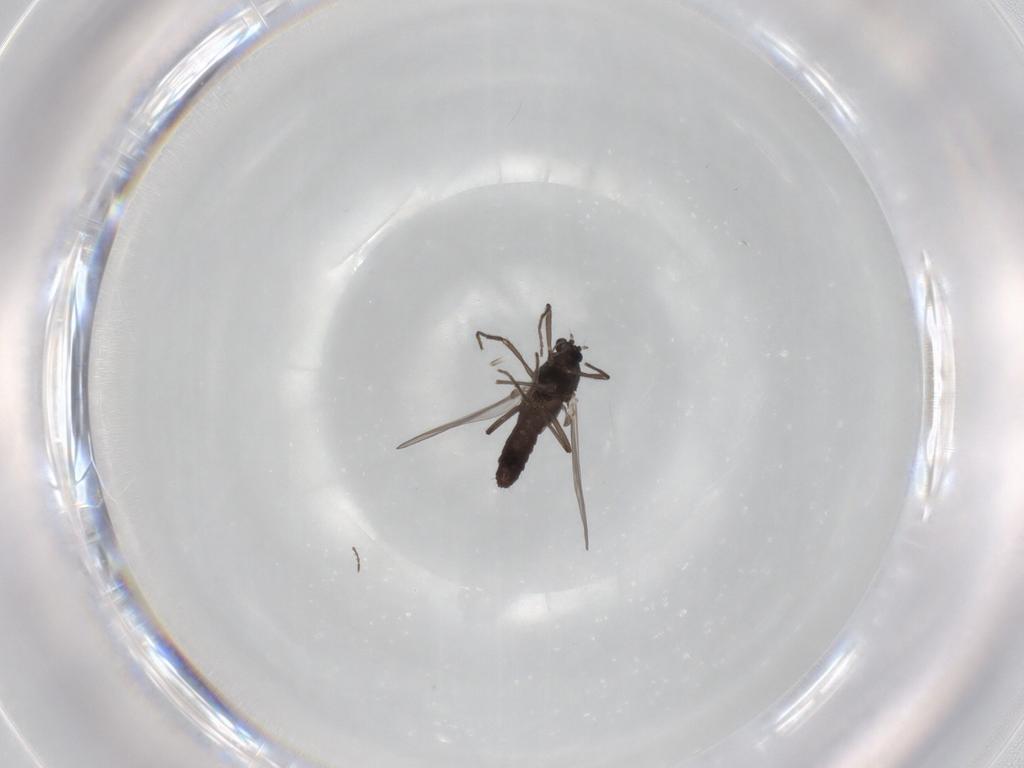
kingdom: Animalia
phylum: Arthropoda
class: Insecta
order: Diptera
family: Chironomidae
